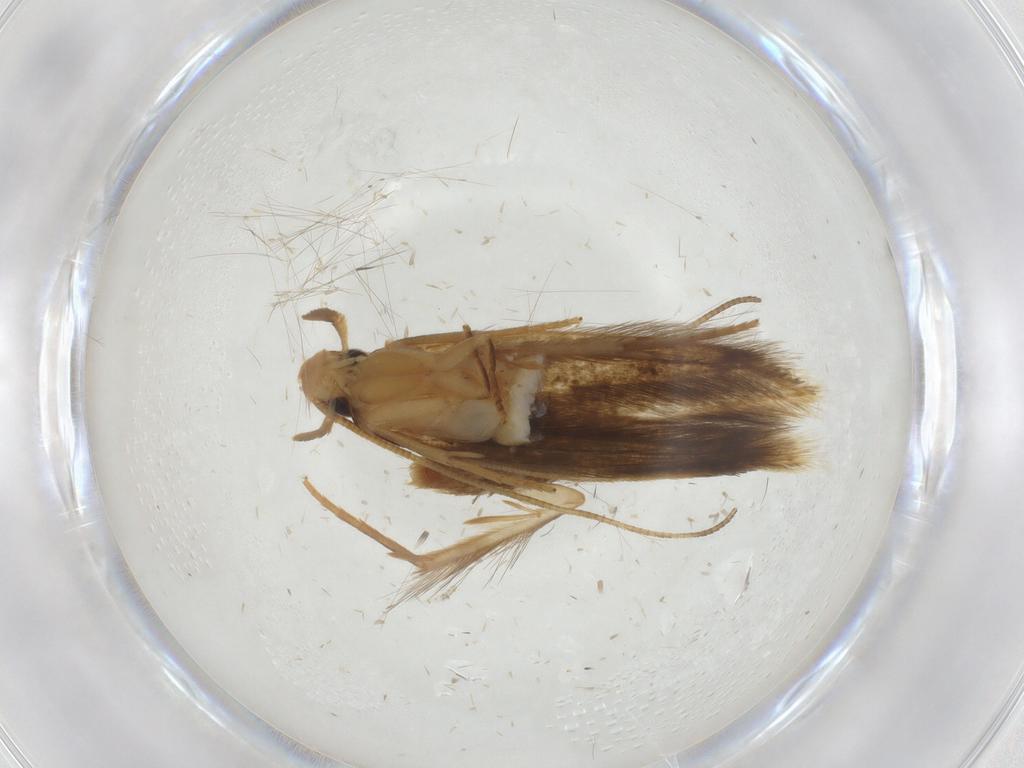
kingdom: Animalia
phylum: Arthropoda
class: Insecta
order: Lepidoptera
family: Tineidae
